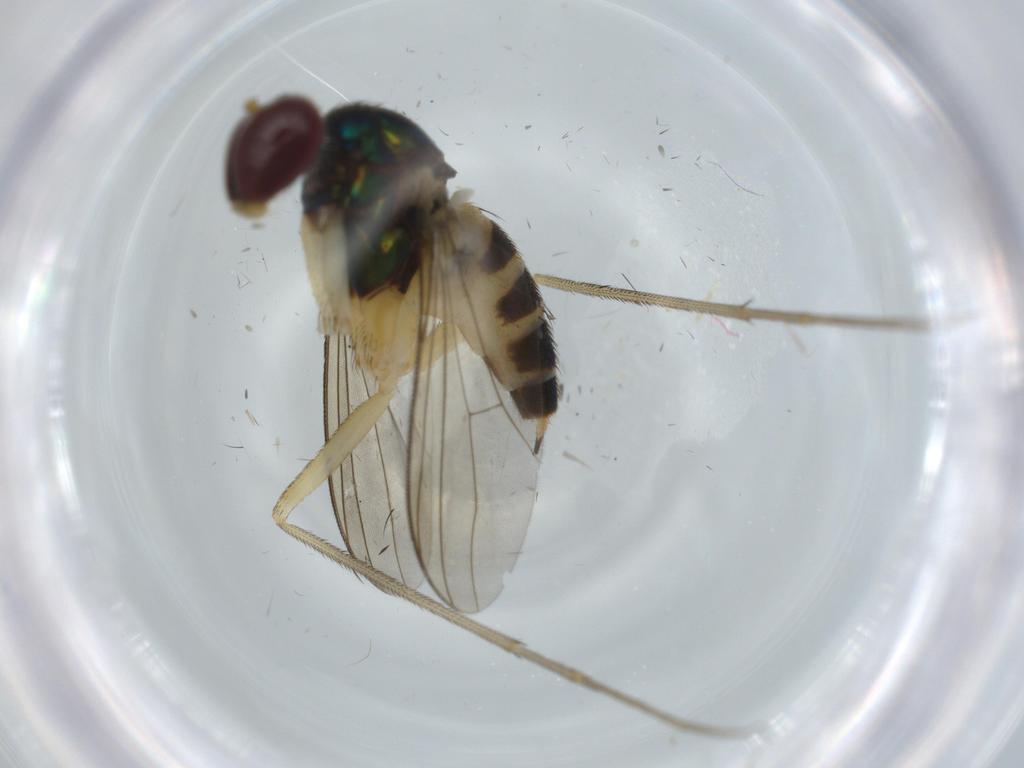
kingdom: Animalia
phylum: Arthropoda
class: Insecta
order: Diptera
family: Dolichopodidae
